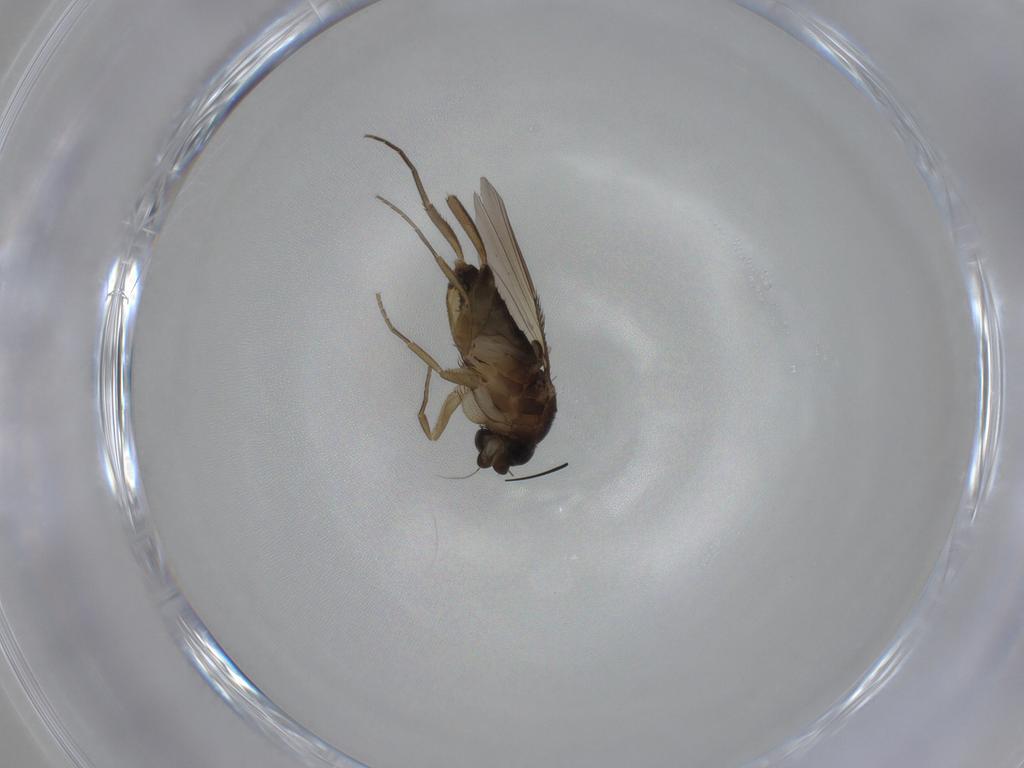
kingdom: Animalia
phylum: Arthropoda
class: Insecta
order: Diptera
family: Phoridae
